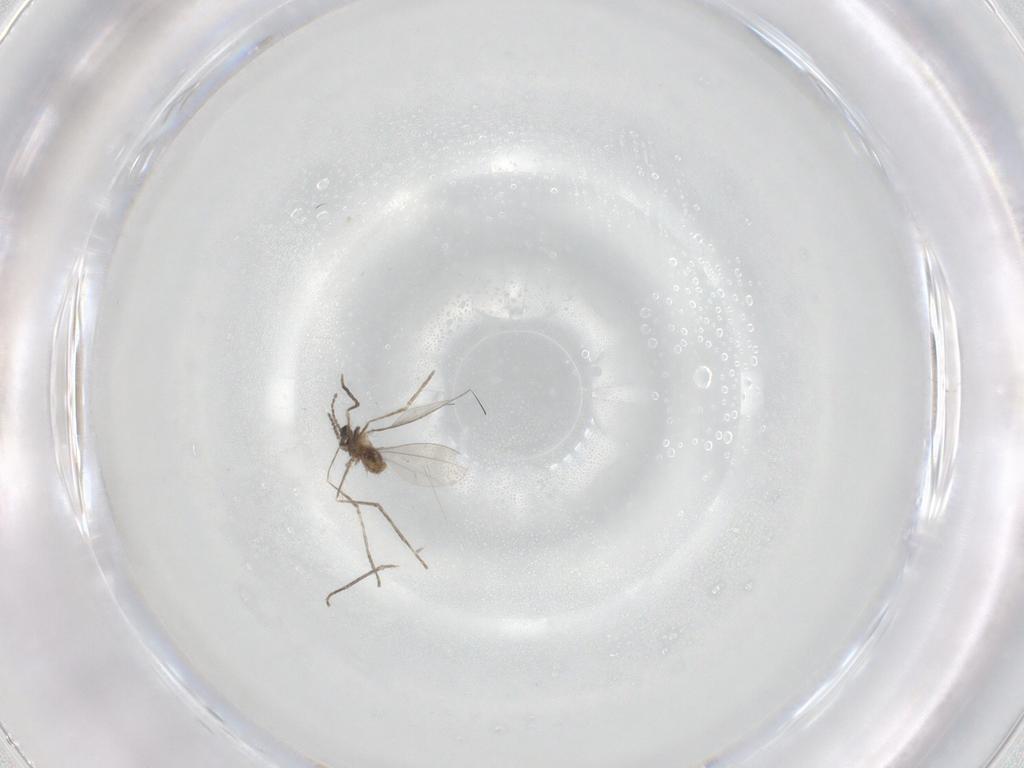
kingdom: Animalia
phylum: Arthropoda
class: Insecta
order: Diptera
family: Cecidomyiidae
